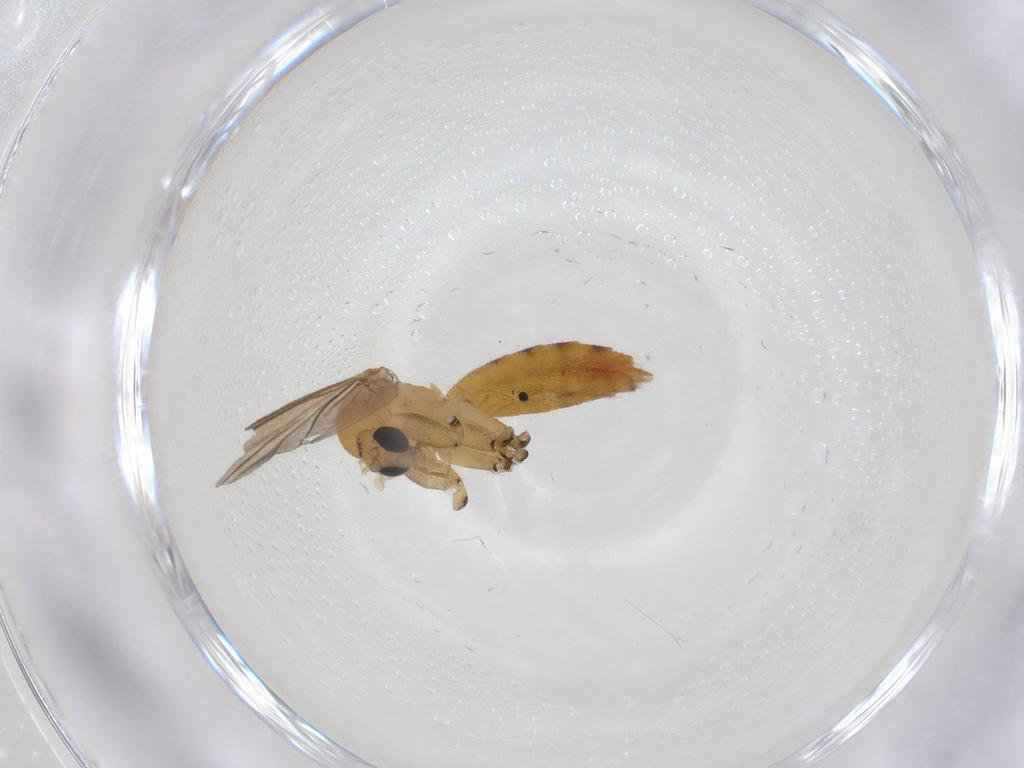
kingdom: Animalia
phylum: Arthropoda
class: Insecta
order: Diptera
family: Mycetophilidae
